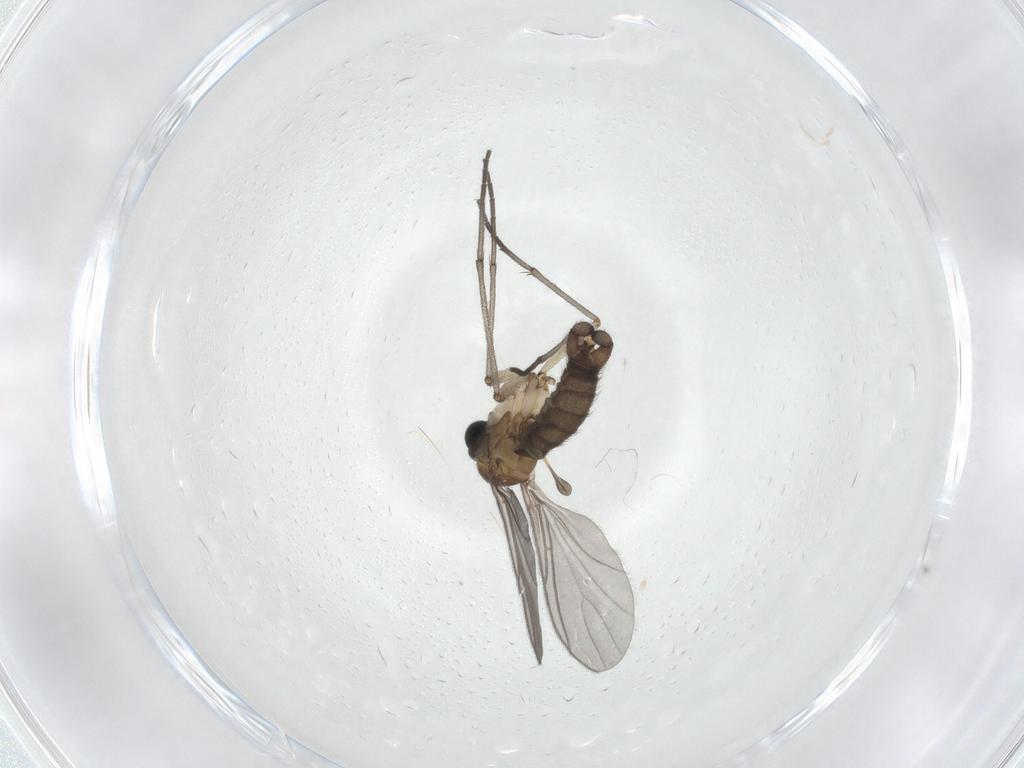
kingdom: Animalia
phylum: Arthropoda
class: Insecta
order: Diptera
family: Sciaridae
